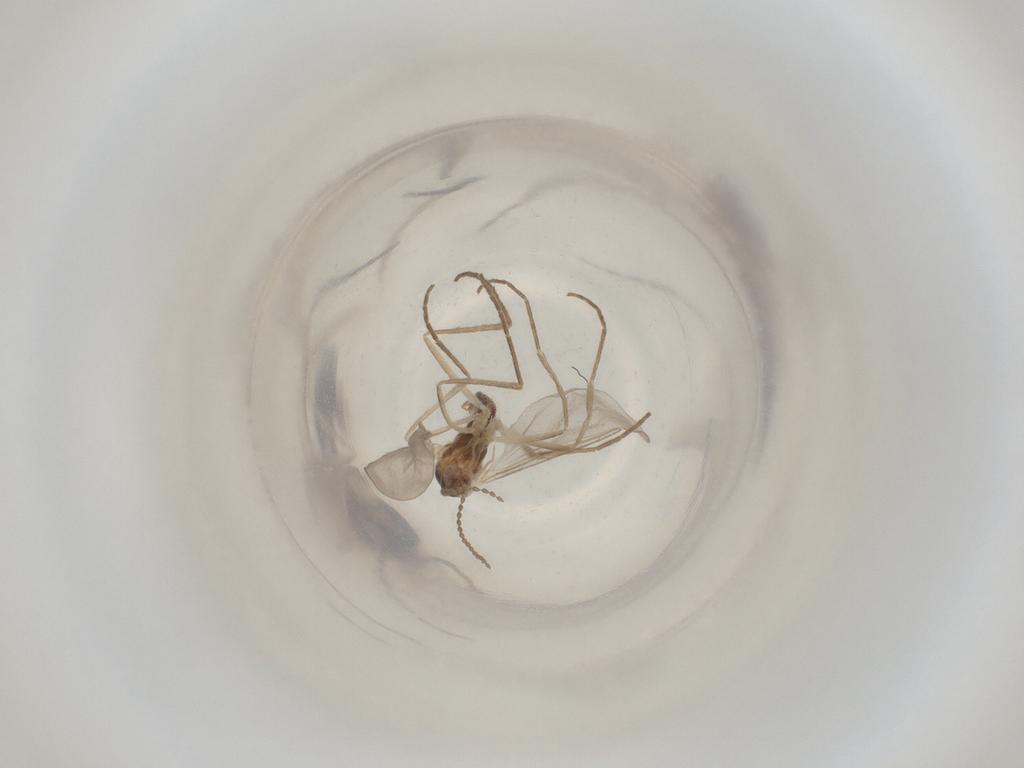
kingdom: Animalia
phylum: Arthropoda
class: Insecta
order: Diptera
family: Cecidomyiidae
